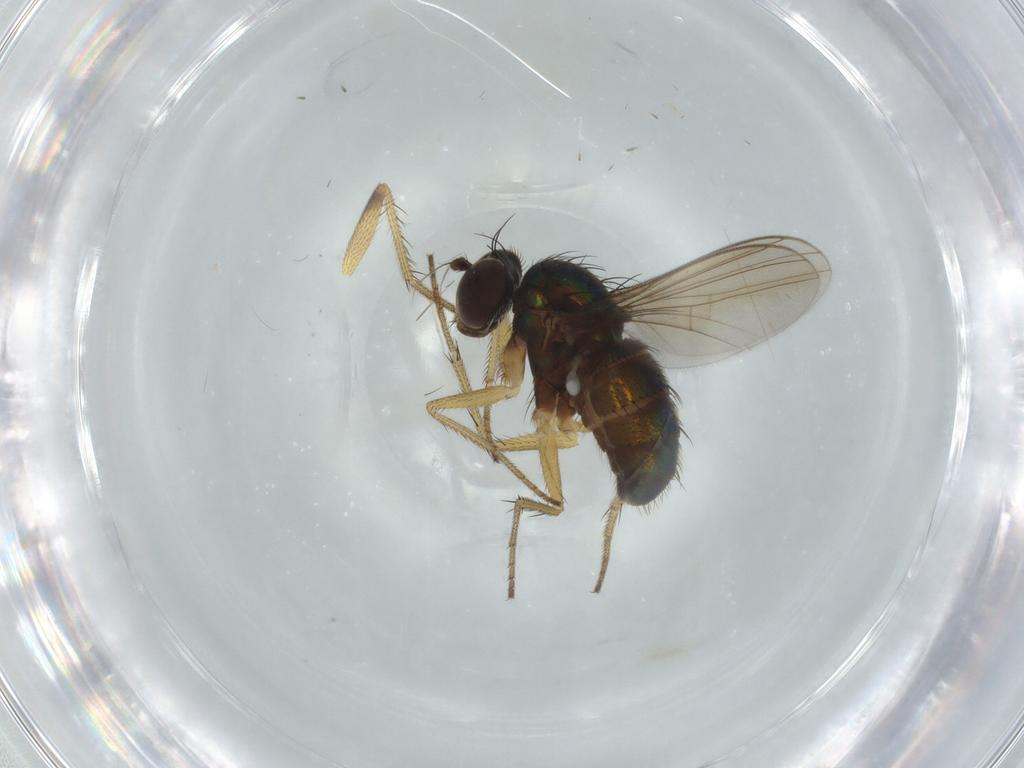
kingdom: Animalia
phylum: Arthropoda
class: Insecta
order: Diptera
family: Dolichopodidae
